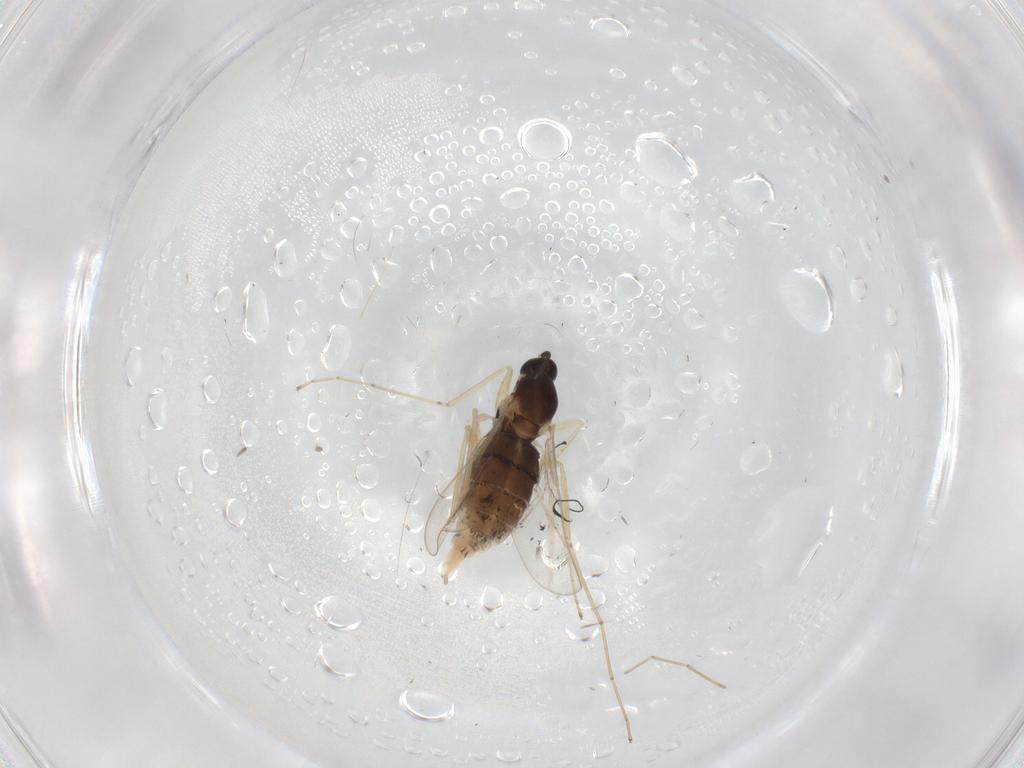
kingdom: Animalia
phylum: Arthropoda
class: Insecta
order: Diptera
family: Cecidomyiidae
